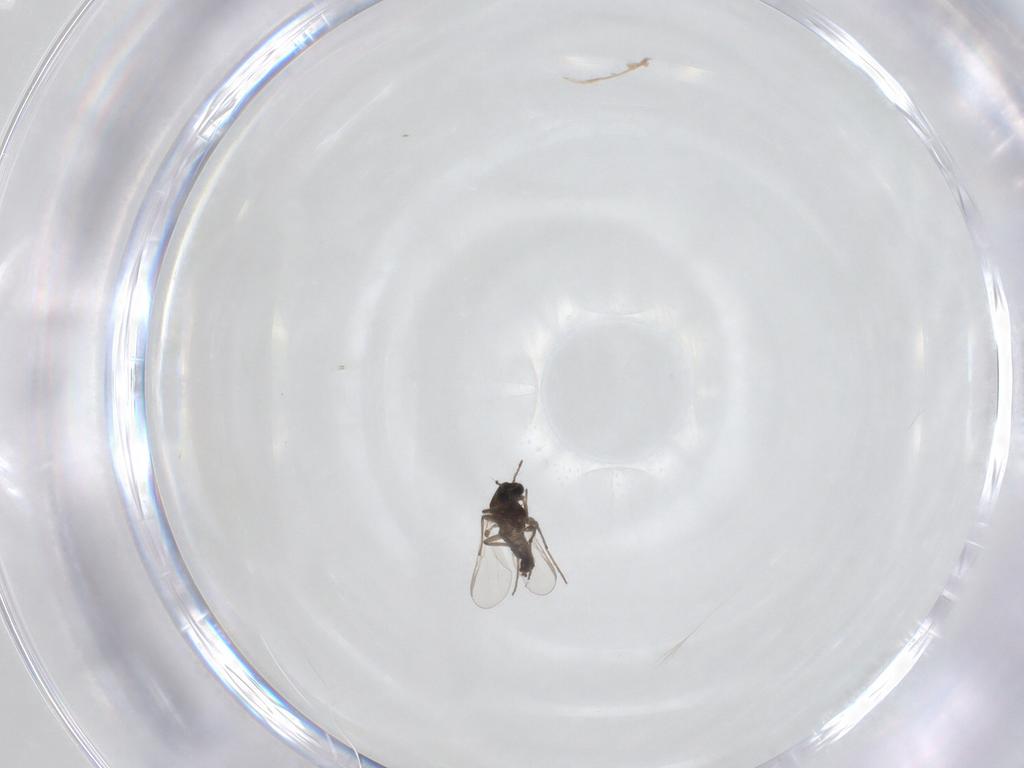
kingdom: Animalia
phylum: Arthropoda
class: Insecta
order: Diptera
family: Chironomidae
